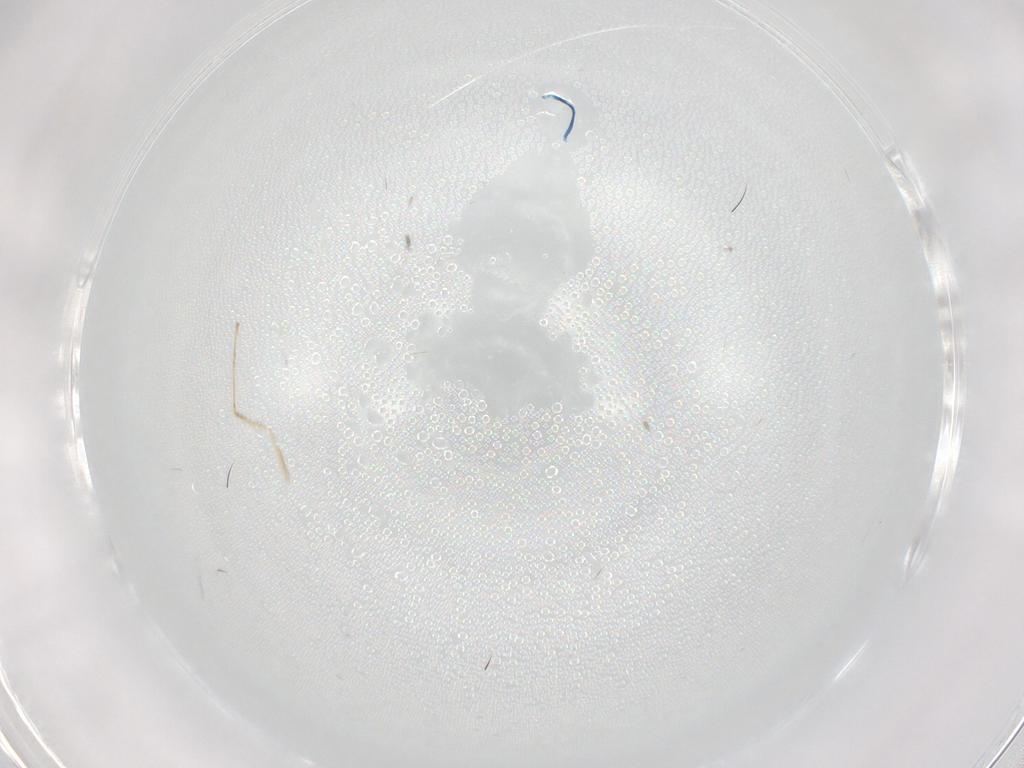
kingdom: Animalia
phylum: Arthropoda
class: Insecta
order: Diptera
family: Cecidomyiidae
